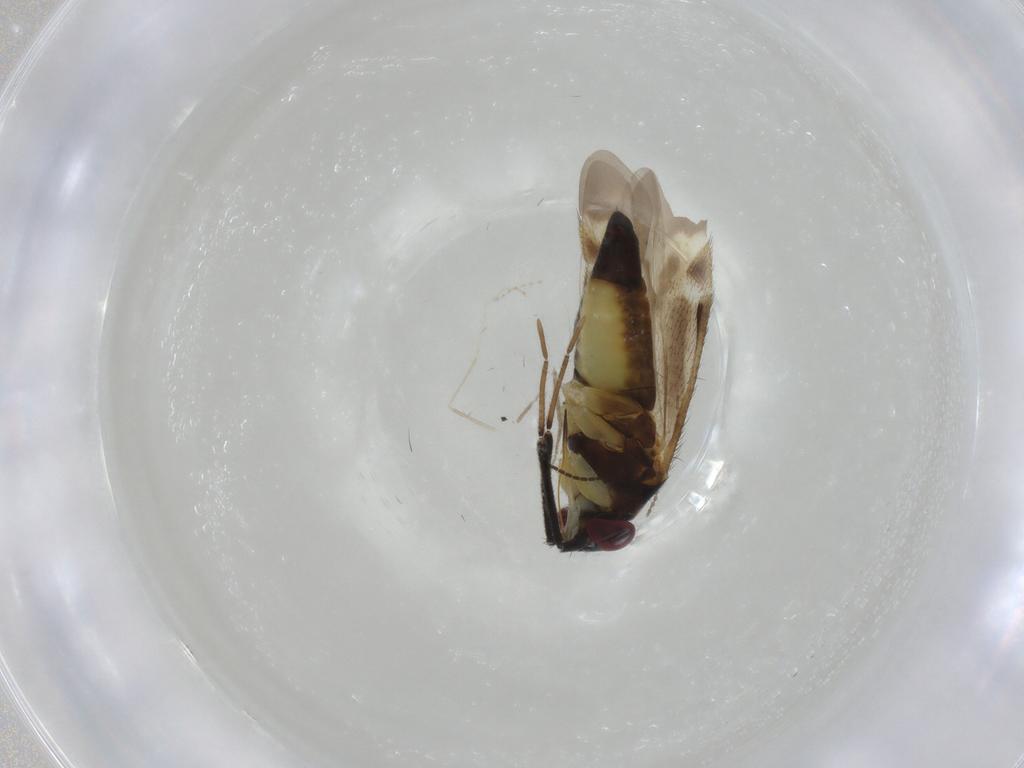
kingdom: Animalia
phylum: Arthropoda
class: Insecta
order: Hemiptera
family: Miridae
